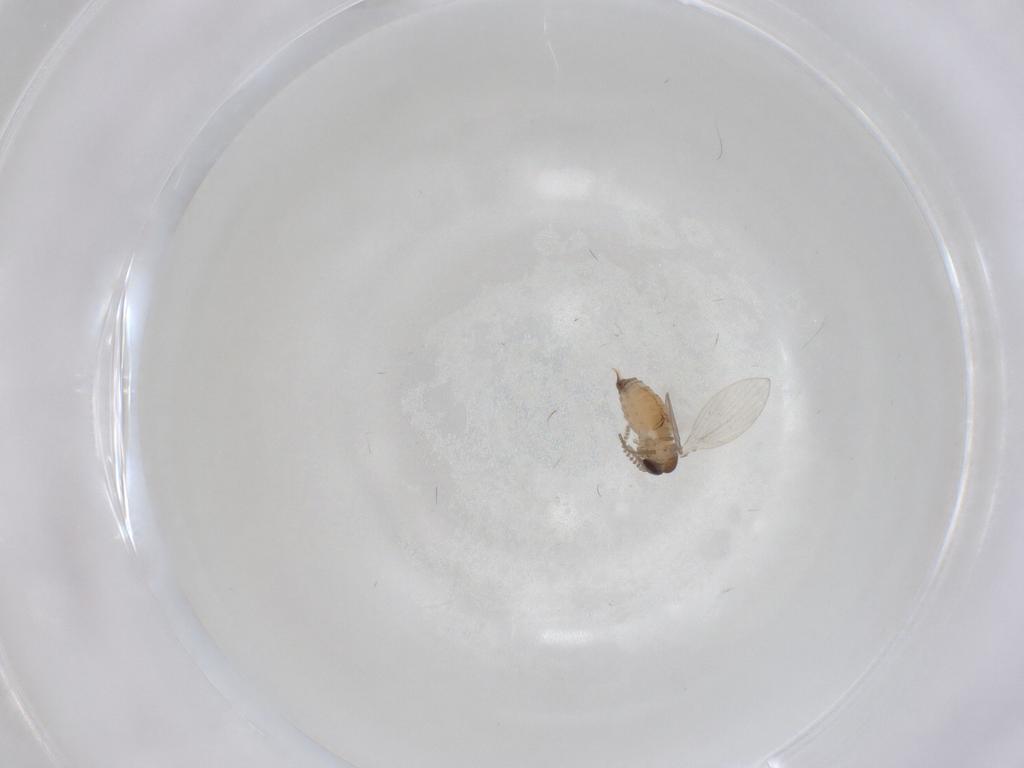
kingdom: Animalia
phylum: Arthropoda
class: Insecta
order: Diptera
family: Psychodidae
